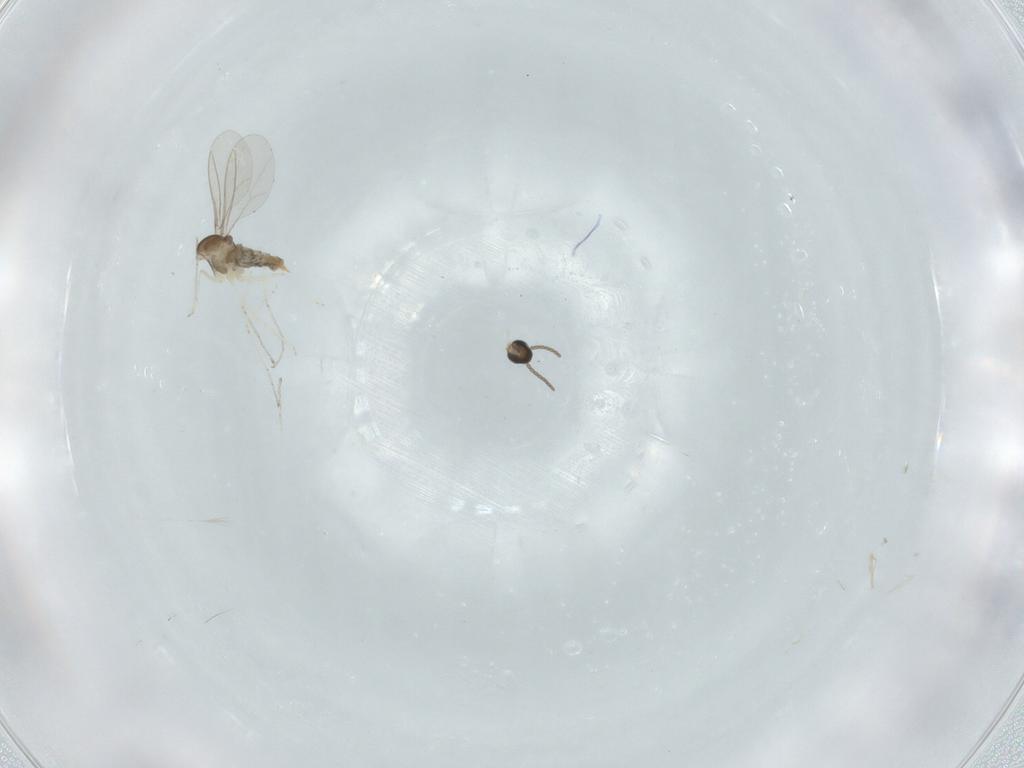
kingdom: Animalia
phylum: Arthropoda
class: Insecta
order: Diptera
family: Cecidomyiidae
